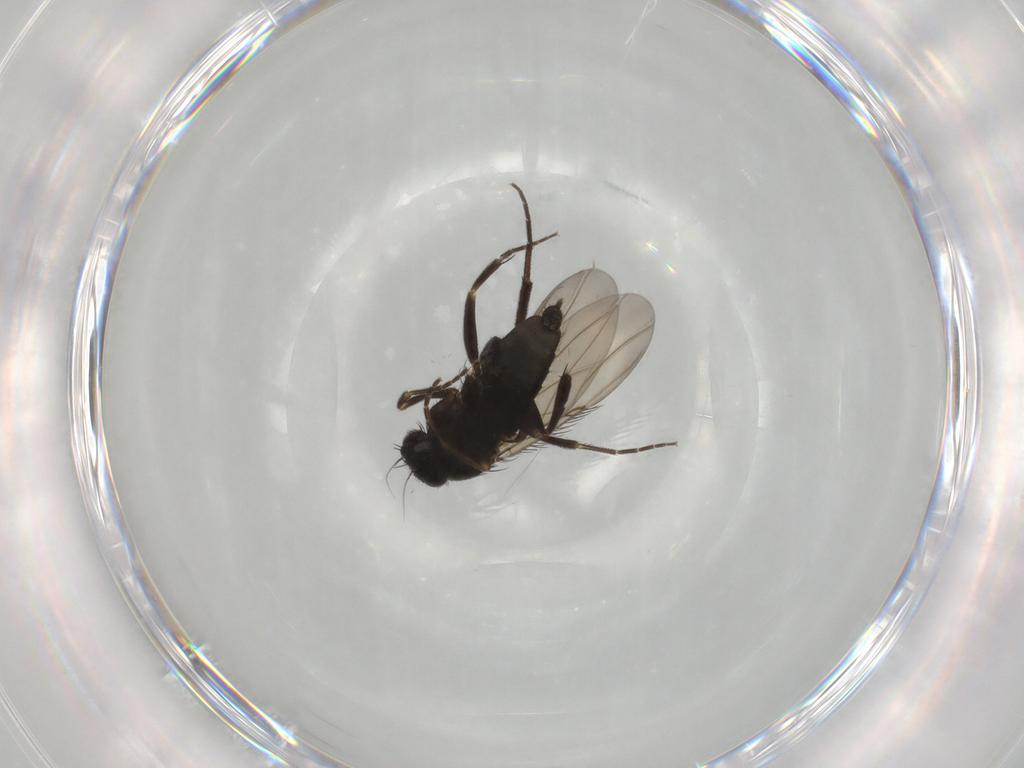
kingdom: Animalia
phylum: Arthropoda
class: Insecta
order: Diptera
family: Phoridae
